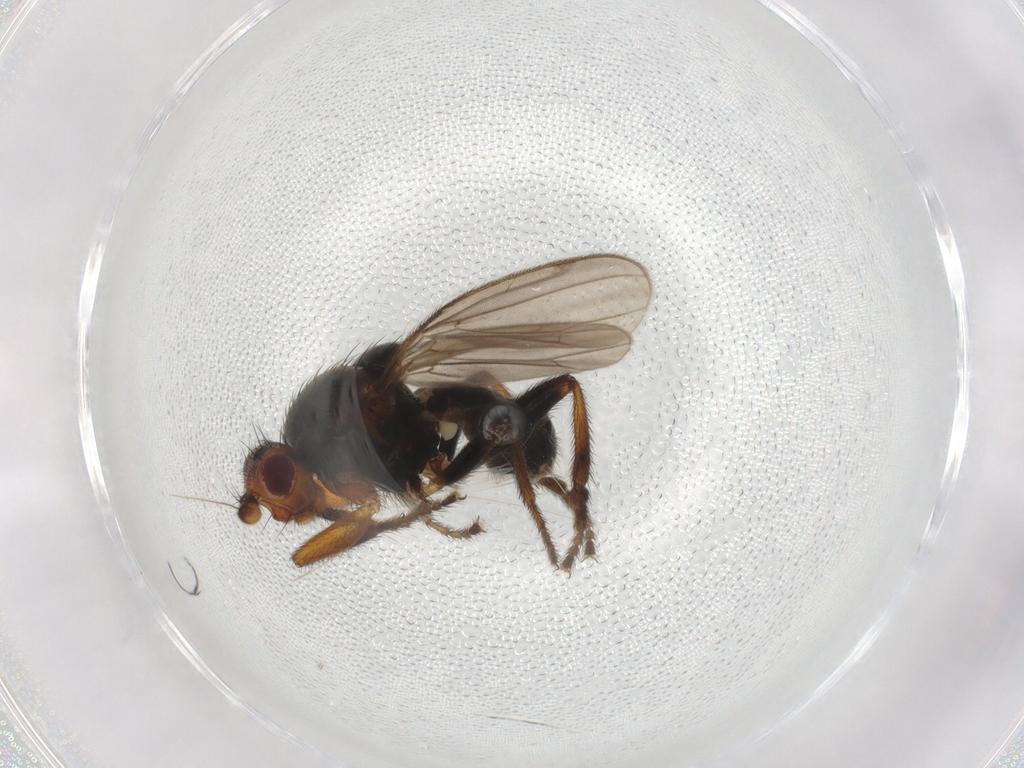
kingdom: Animalia
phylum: Arthropoda
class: Insecta
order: Diptera
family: Sphaeroceridae
